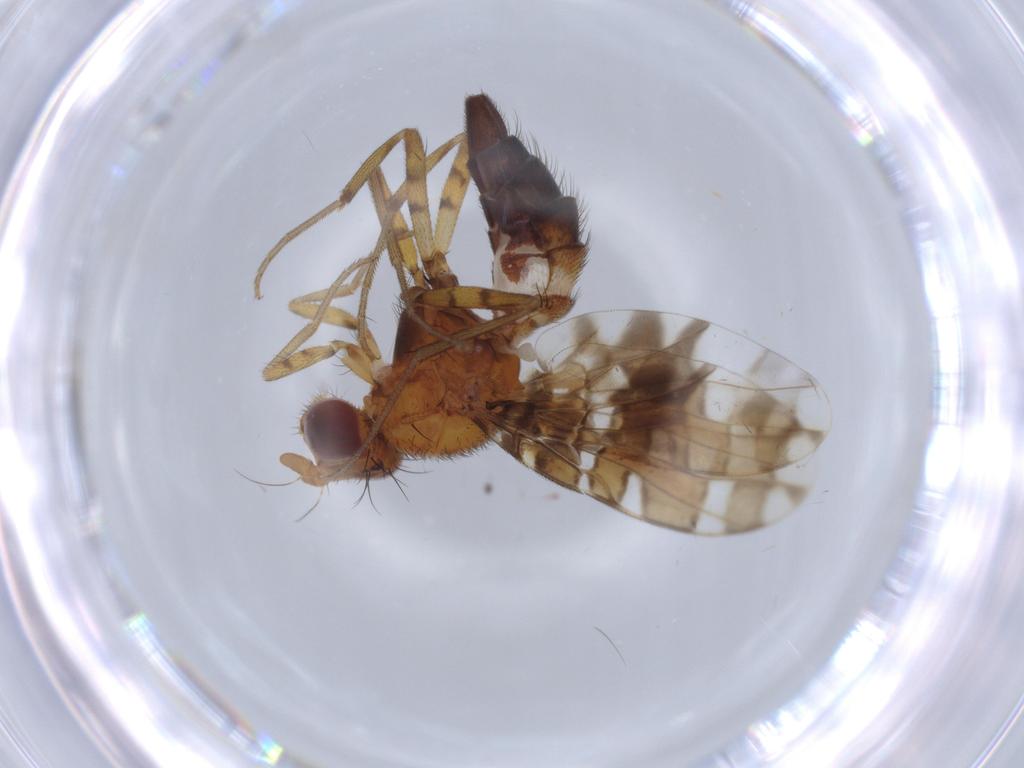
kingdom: Animalia
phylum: Arthropoda
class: Insecta
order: Diptera
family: Ulidiidae
